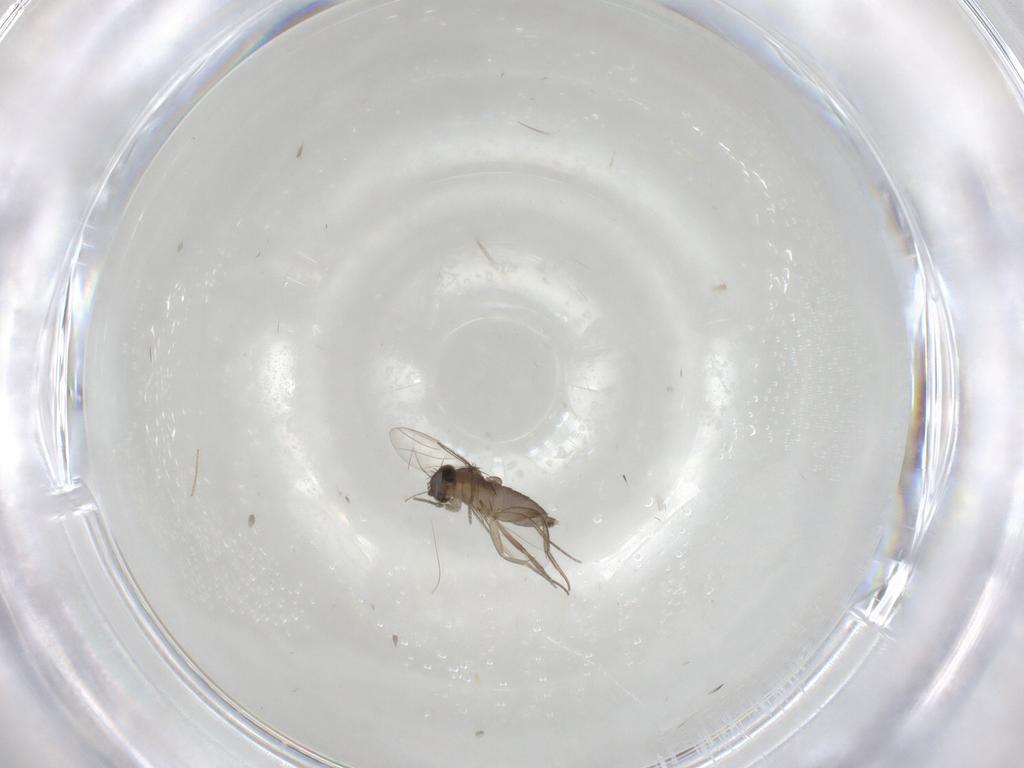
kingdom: Animalia
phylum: Arthropoda
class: Insecta
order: Diptera
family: Phoridae
